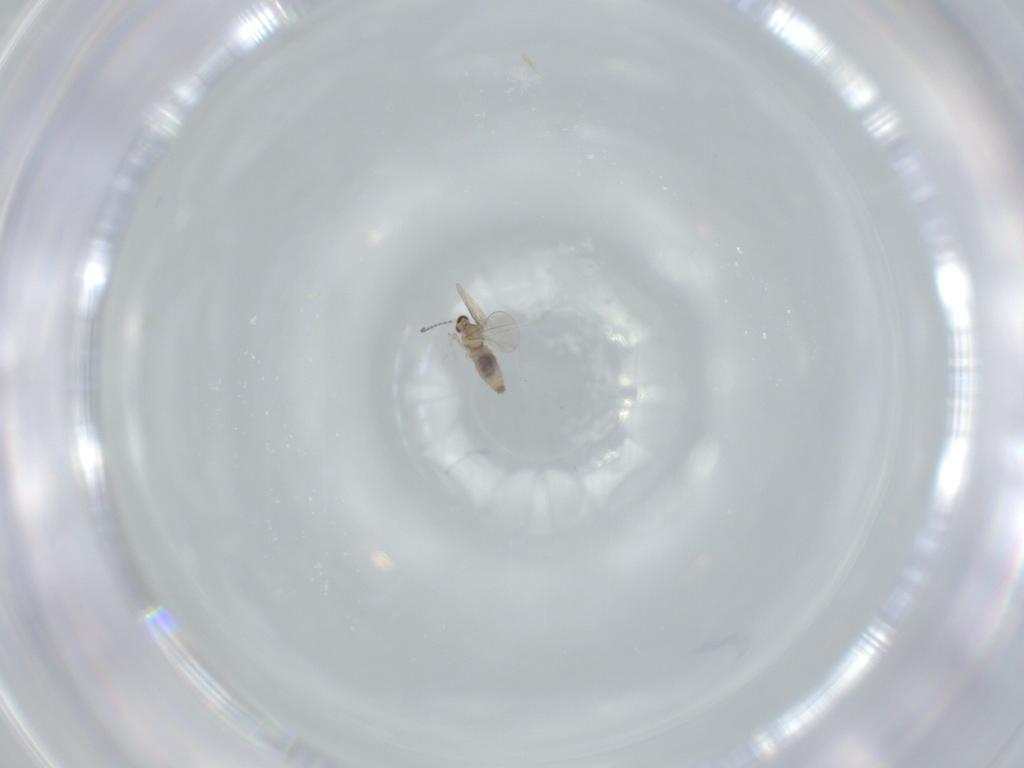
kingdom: Animalia
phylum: Arthropoda
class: Insecta
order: Diptera
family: Cecidomyiidae
